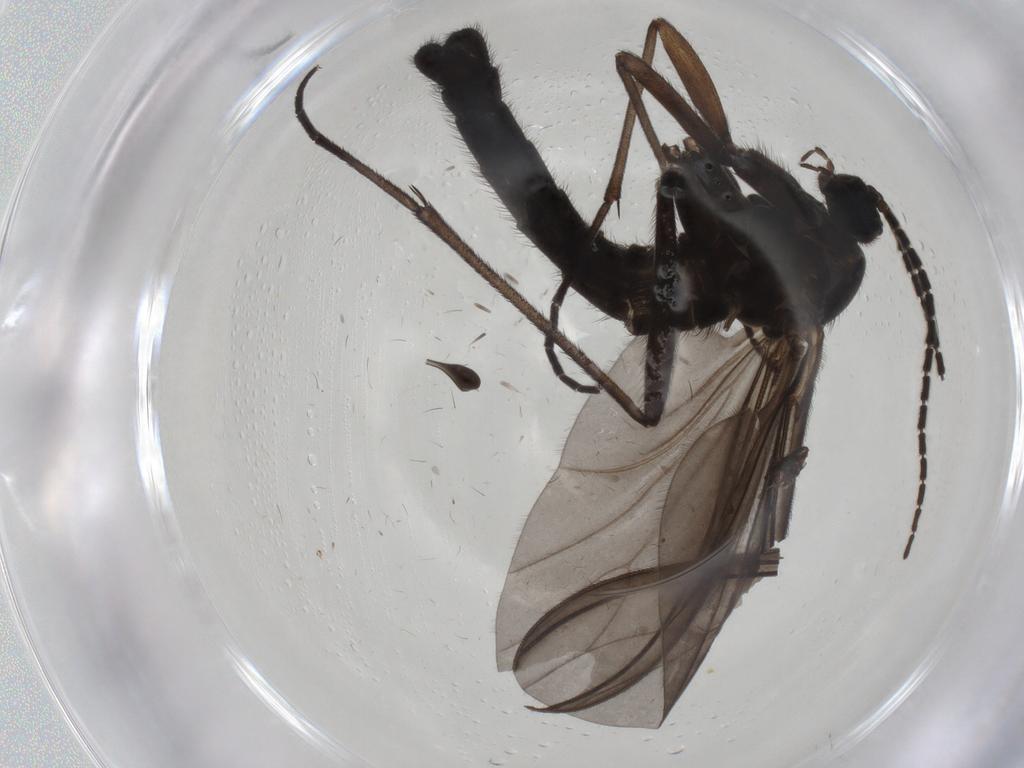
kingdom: Animalia
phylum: Arthropoda
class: Insecta
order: Diptera
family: Sciaridae
